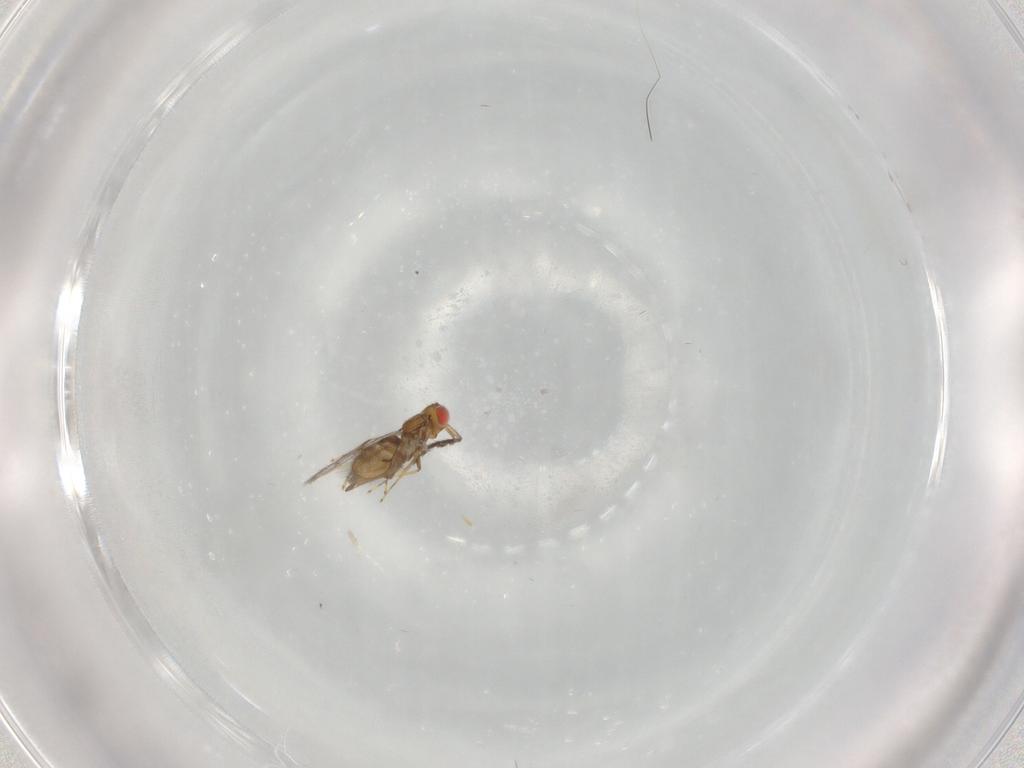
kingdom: Animalia
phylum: Arthropoda
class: Insecta
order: Hymenoptera
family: Eulophidae
